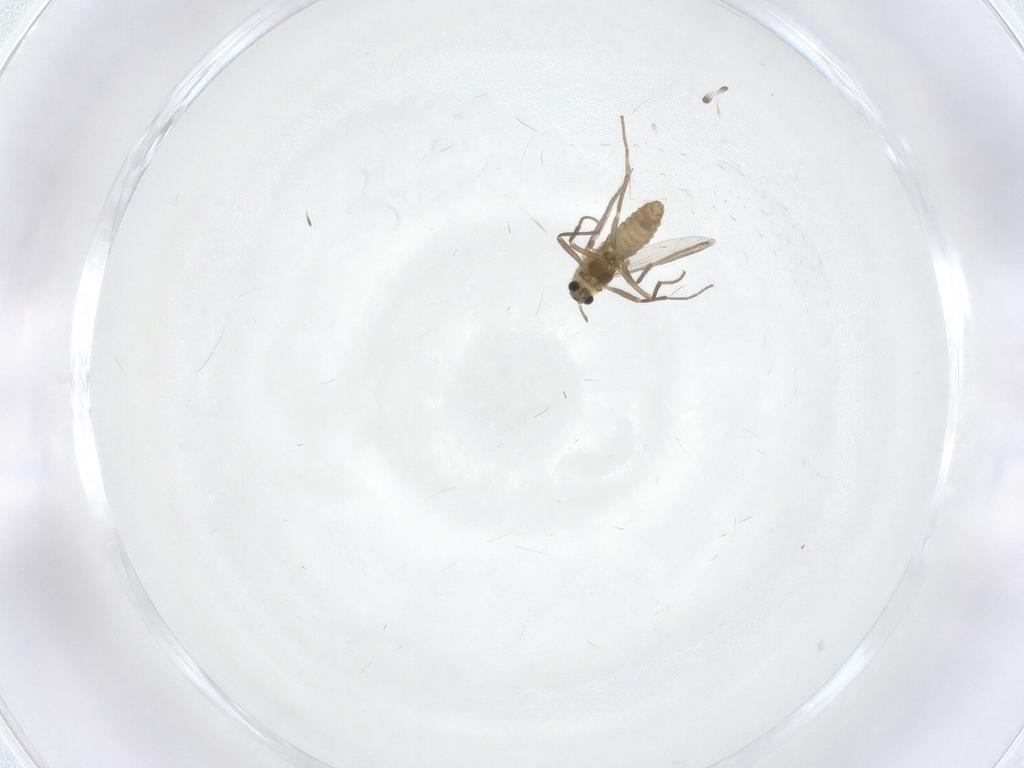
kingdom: Animalia
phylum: Arthropoda
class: Insecta
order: Diptera
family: Chironomidae
